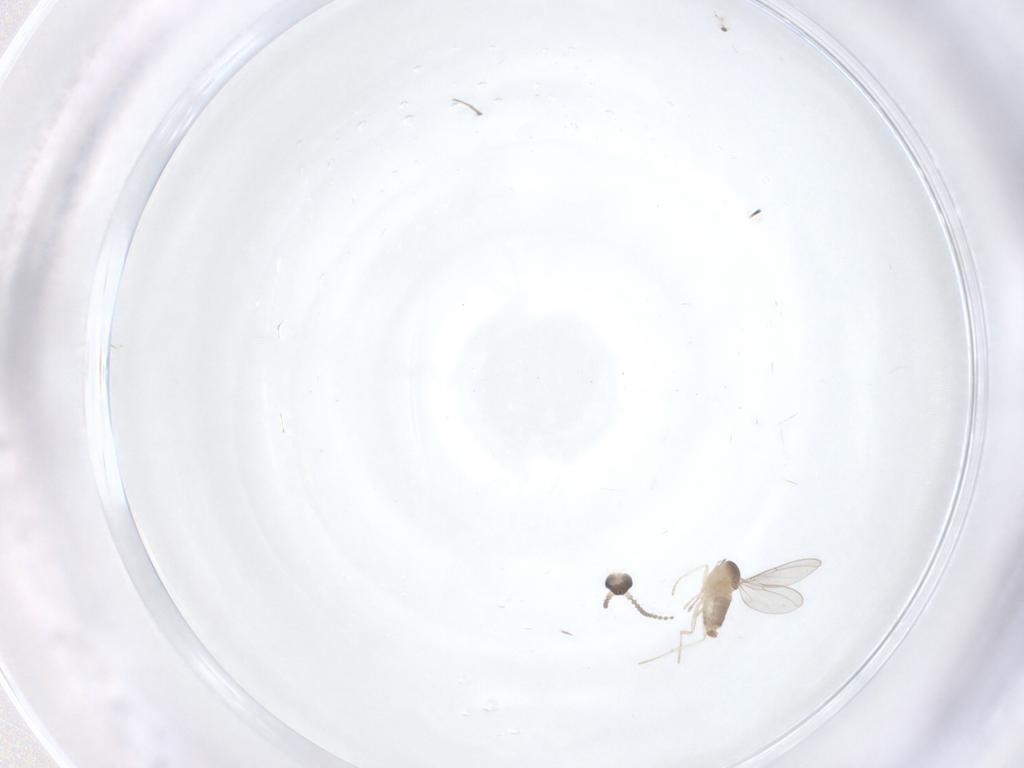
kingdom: Animalia
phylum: Arthropoda
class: Insecta
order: Diptera
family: Cecidomyiidae
